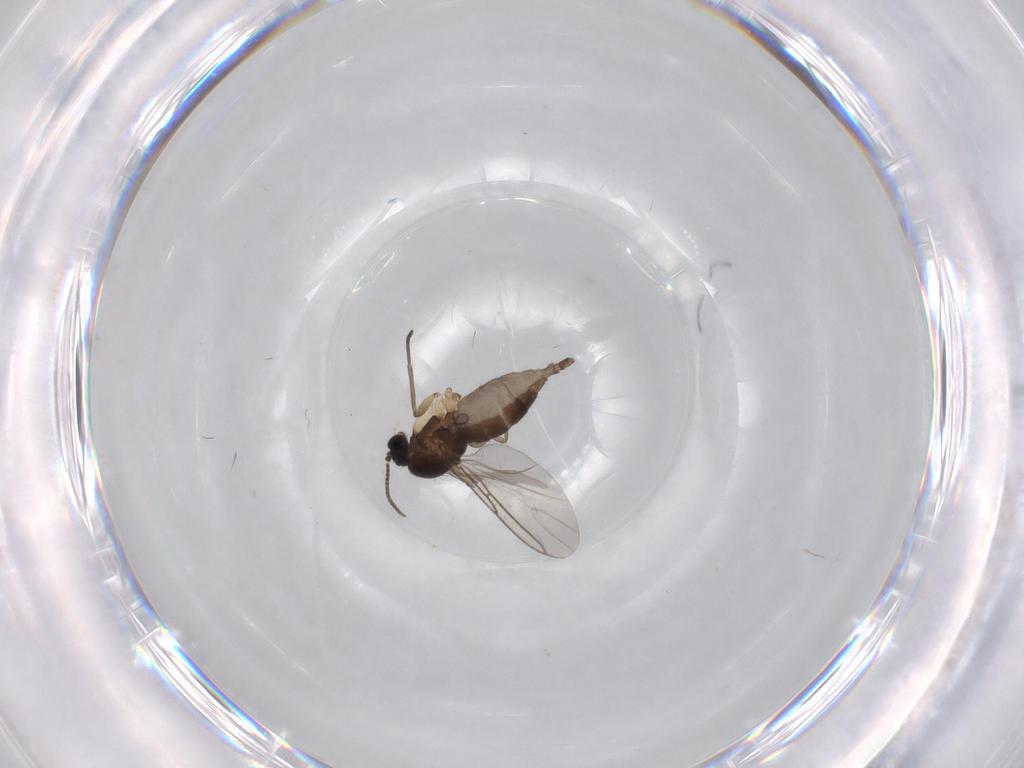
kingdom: Animalia
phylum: Arthropoda
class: Insecta
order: Diptera
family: Sciaridae
